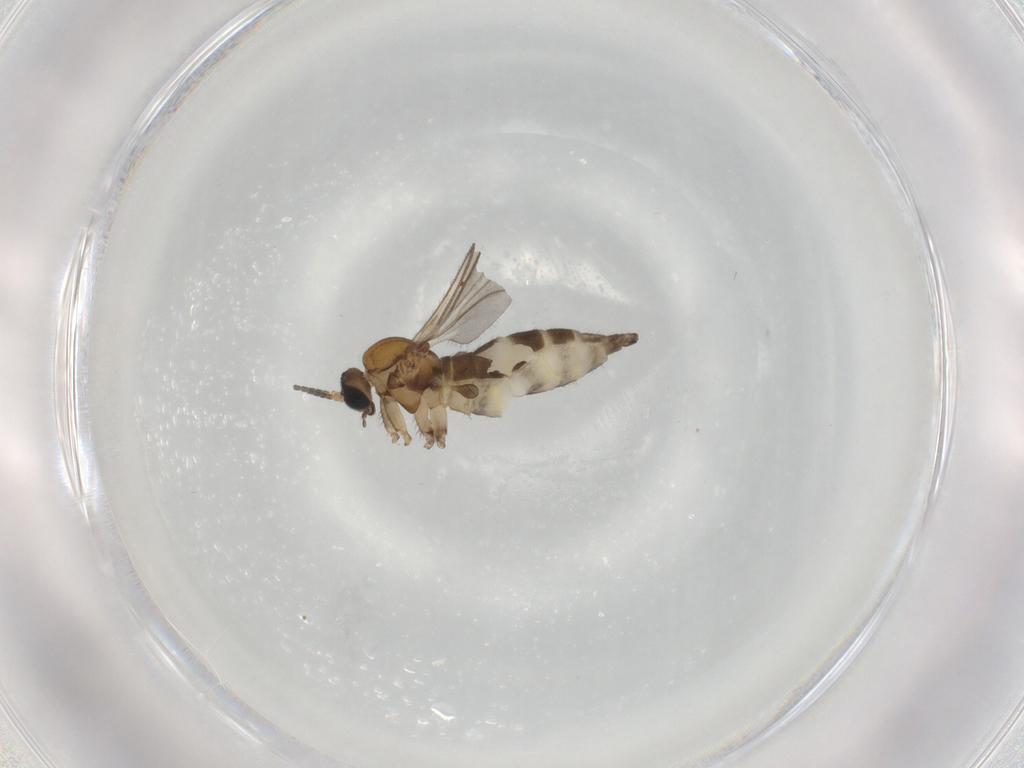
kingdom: Animalia
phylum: Arthropoda
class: Insecta
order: Diptera
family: Sciaridae
